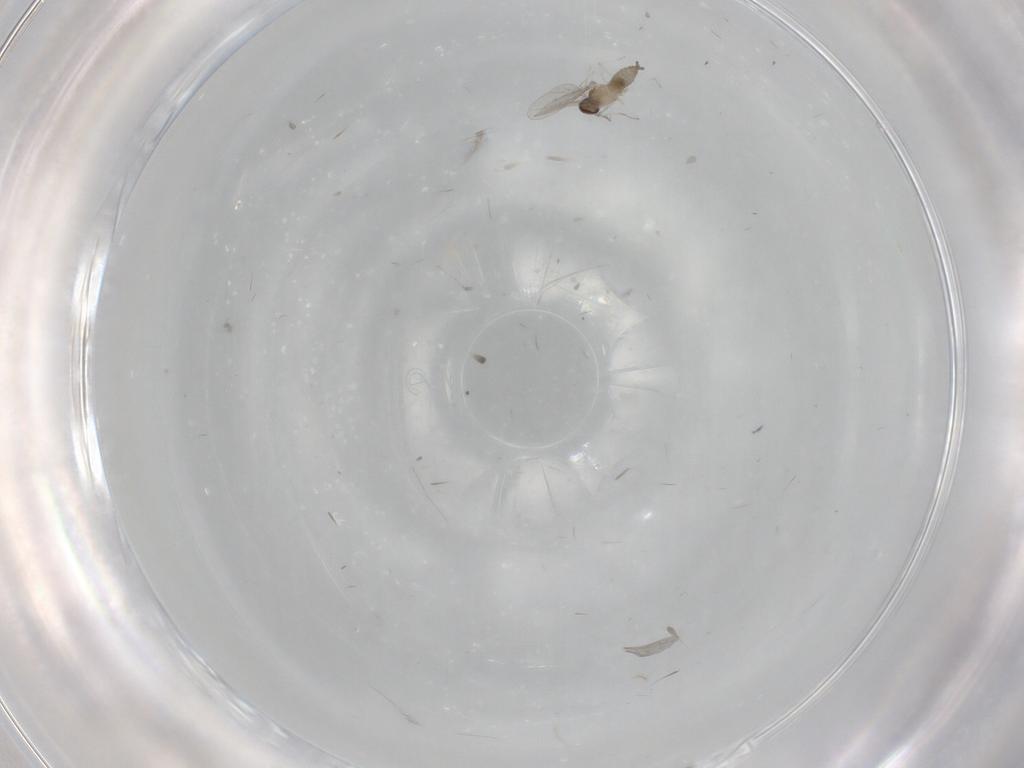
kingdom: Animalia
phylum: Arthropoda
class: Insecta
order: Diptera
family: Cecidomyiidae
